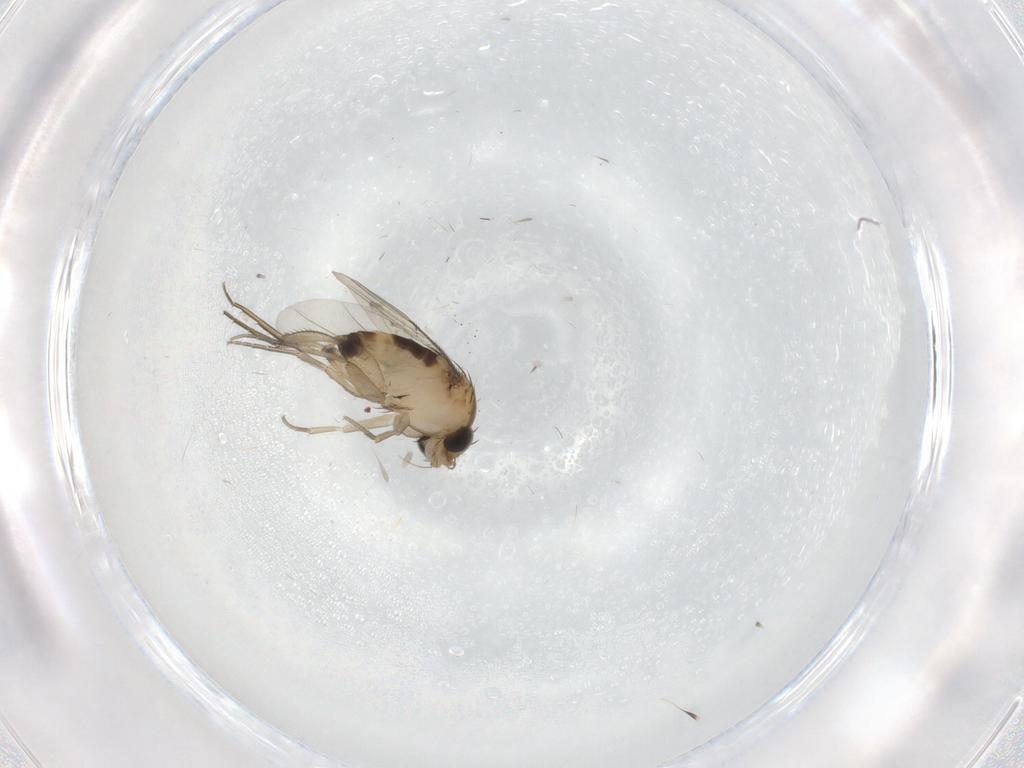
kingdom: Animalia
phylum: Arthropoda
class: Insecta
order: Diptera
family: Phoridae
